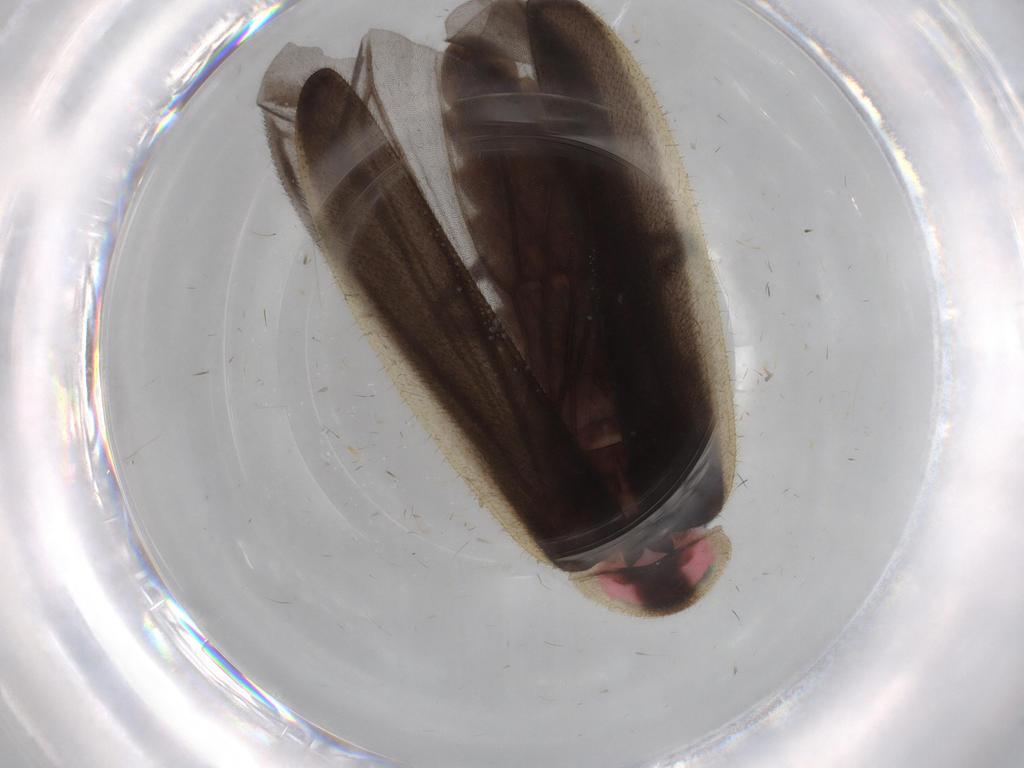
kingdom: Animalia
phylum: Arthropoda
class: Insecta
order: Coleoptera
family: Lampyridae
